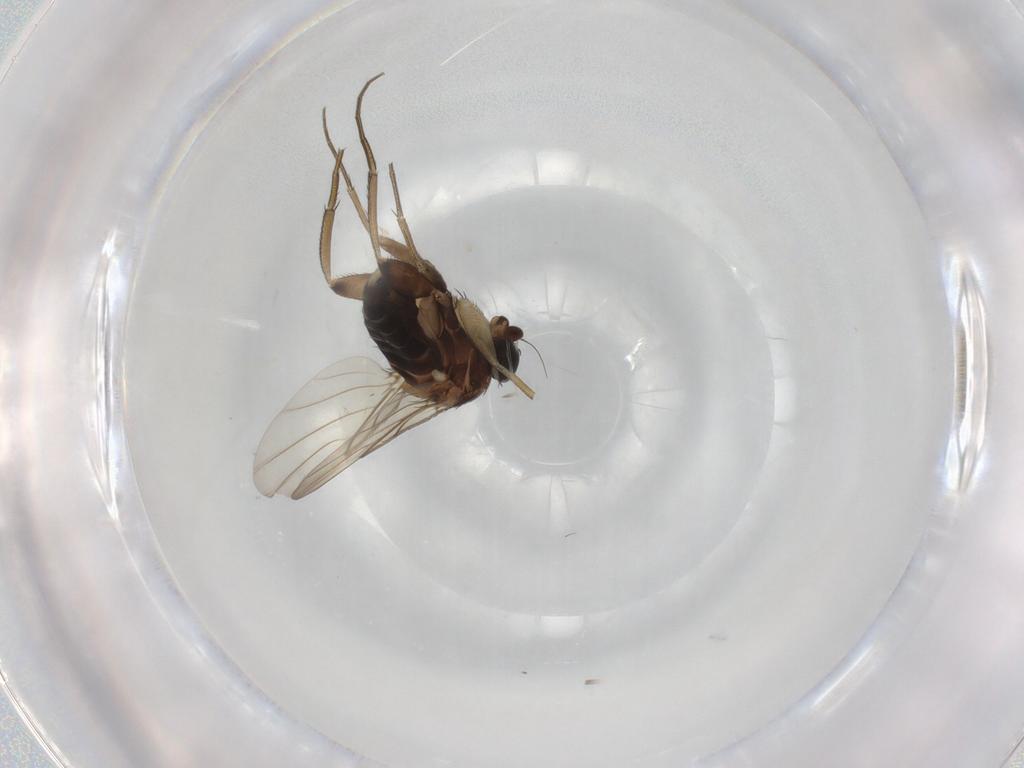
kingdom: Animalia
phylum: Arthropoda
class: Insecta
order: Diptera
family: Phoridae
